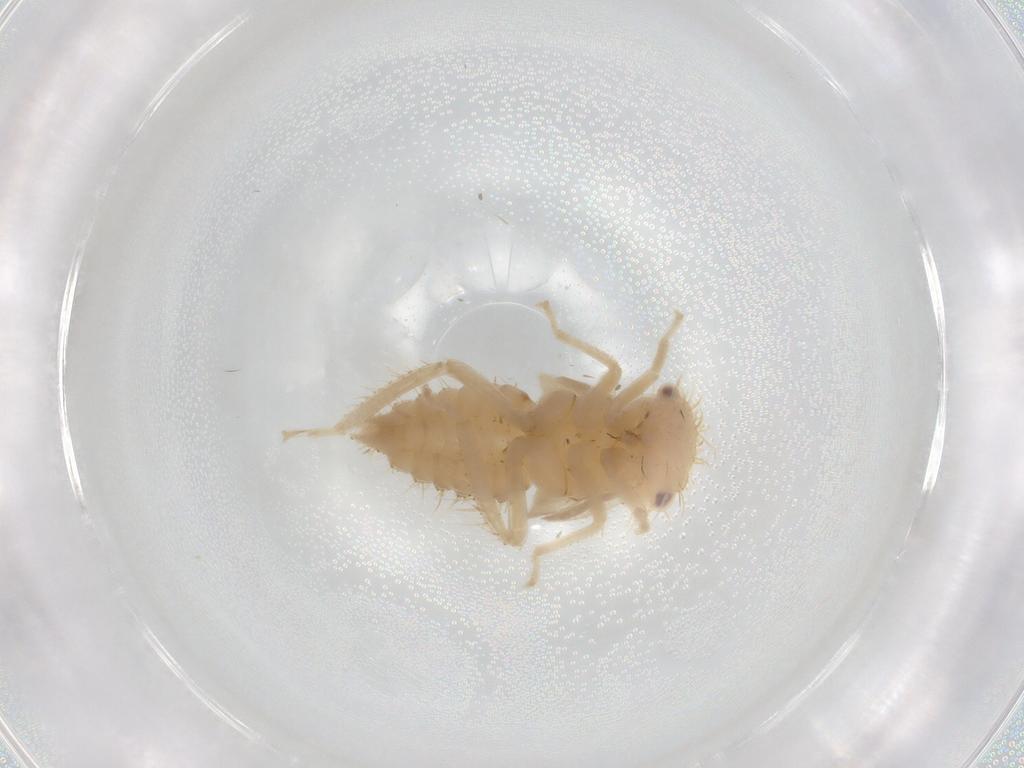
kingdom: Animalia
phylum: Arthropoda
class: Insecta
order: Hemiptera
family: Cicadellidae
